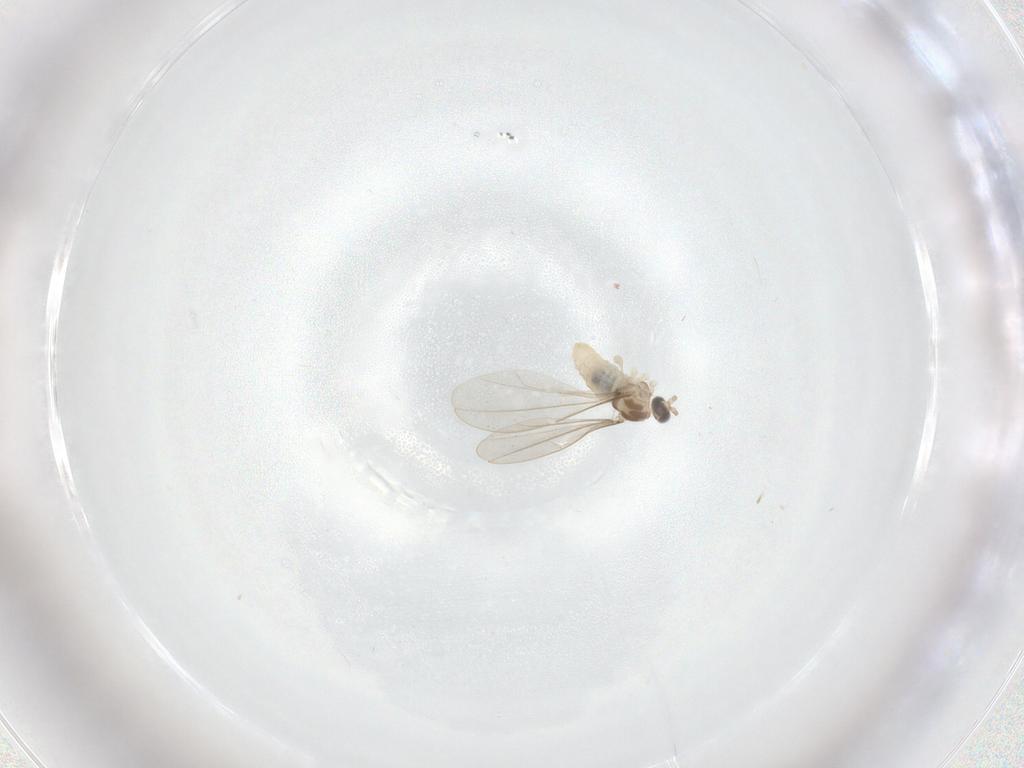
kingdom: Animalia
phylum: Arthropoda
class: Insecta
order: Diptera
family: Cecidomyiidae
